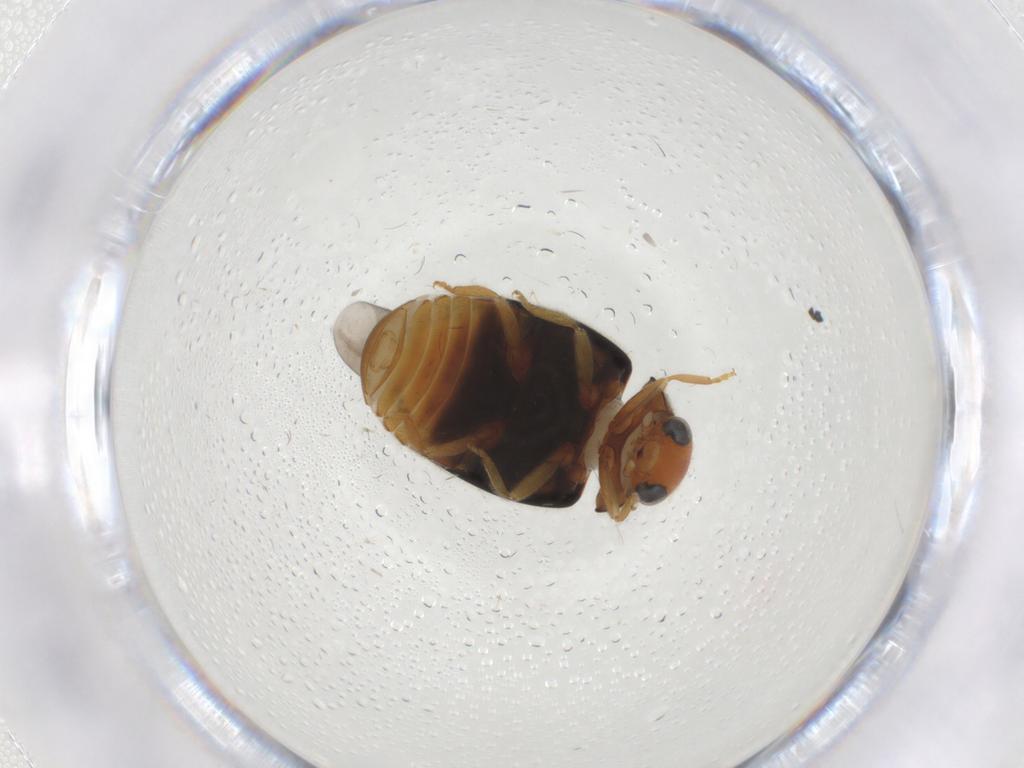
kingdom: Animalia
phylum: Arthropoda
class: Insecta
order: Coleoptera
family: Coccinellidae
